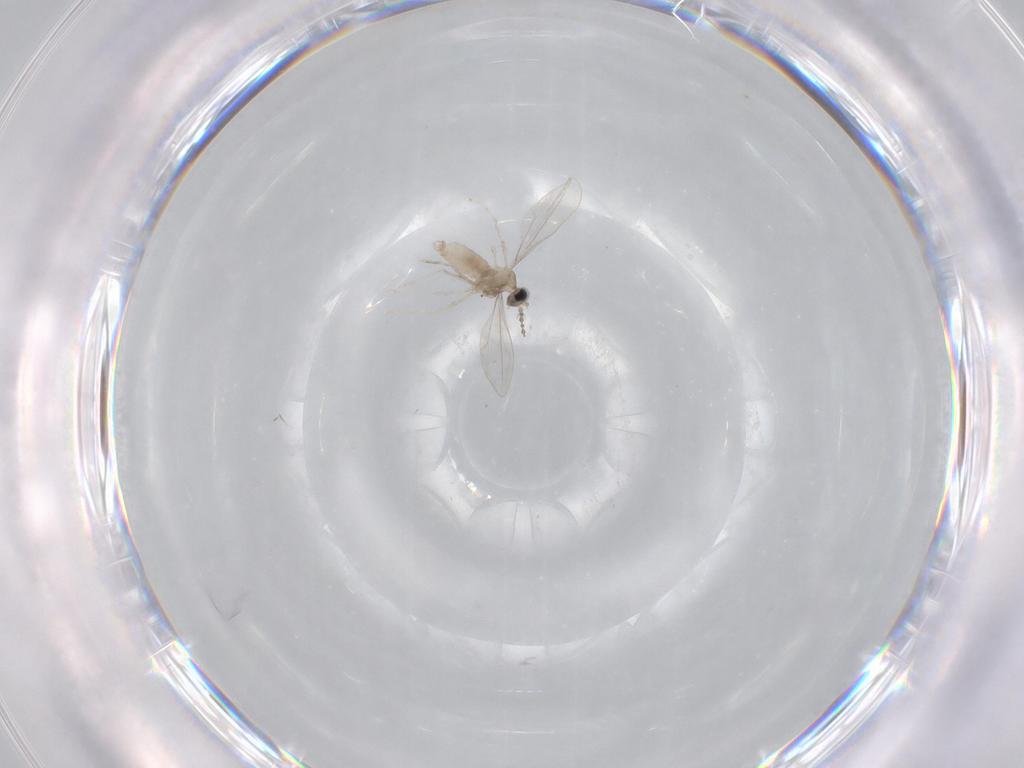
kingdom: Animalia
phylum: Arthropoda
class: Insecta
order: Diptera
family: Cecidomyiidae
